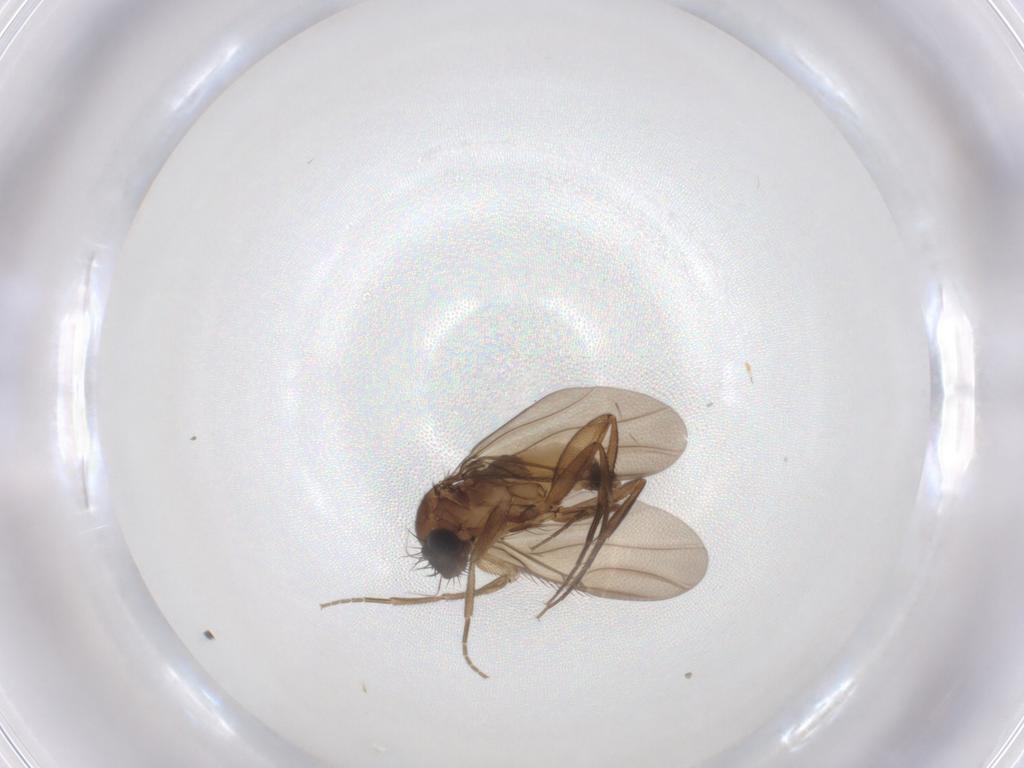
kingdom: Animalia
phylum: Arthropoda
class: Insecta
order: Diptera
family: Phoridae
